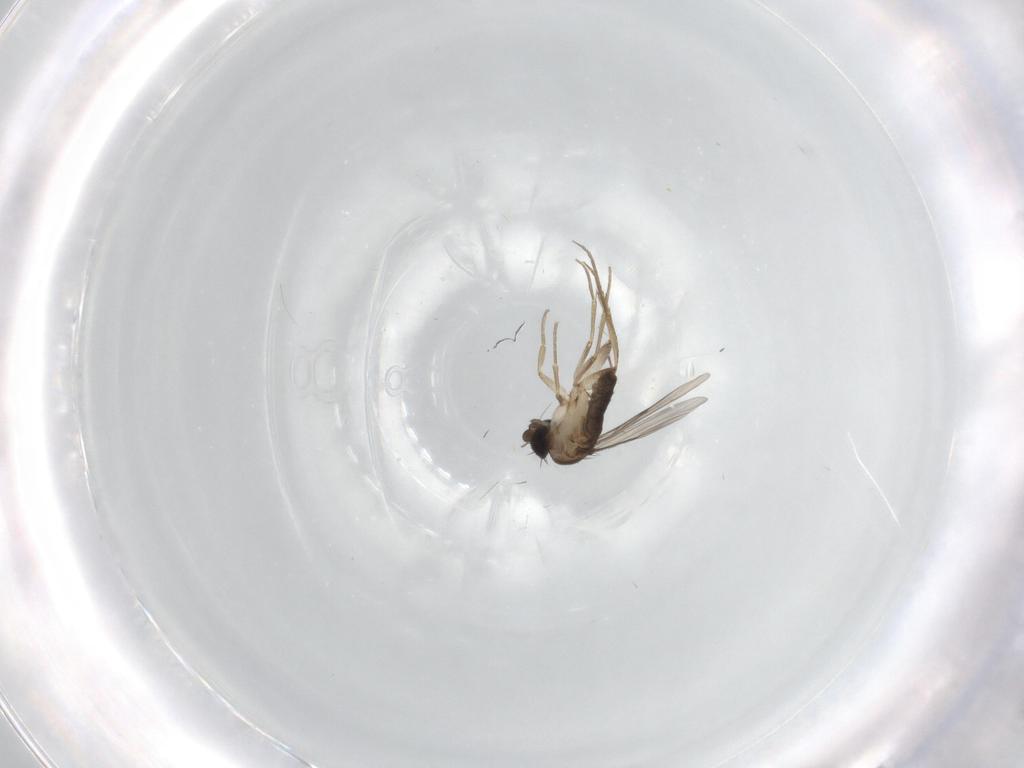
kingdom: Animalia
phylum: Arthropoda
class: Insecta
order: Diptera
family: Phoridae
